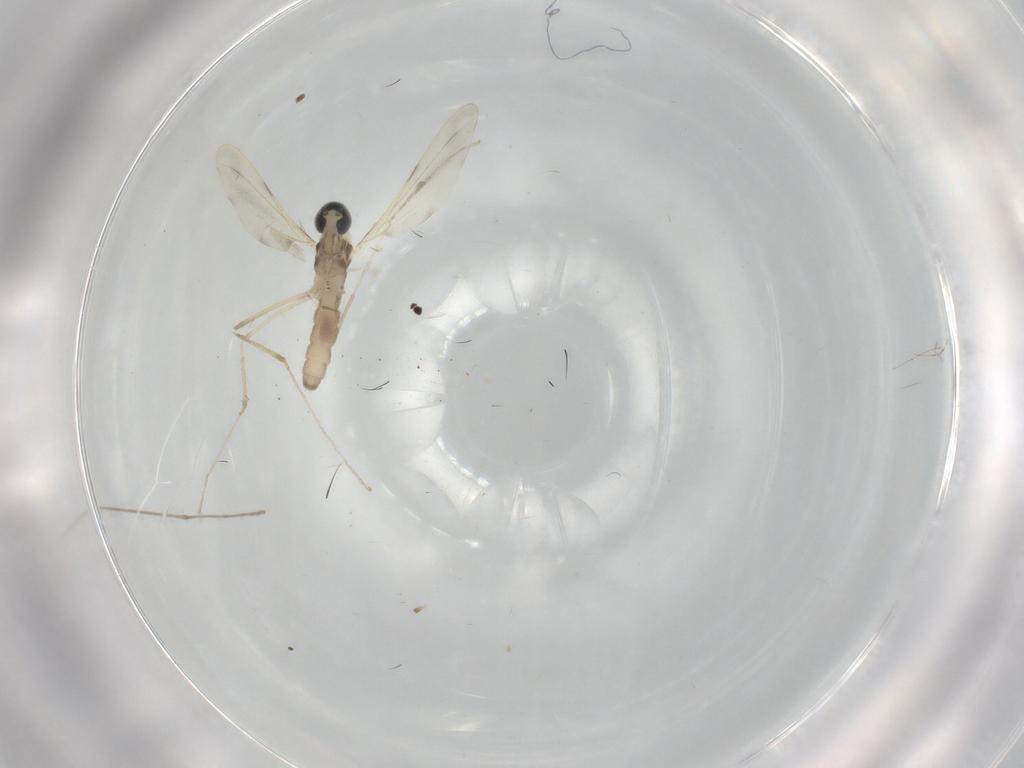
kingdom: Animalia
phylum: Arthropoda
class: Insecta
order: Diptera
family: Cecidomyiidae
